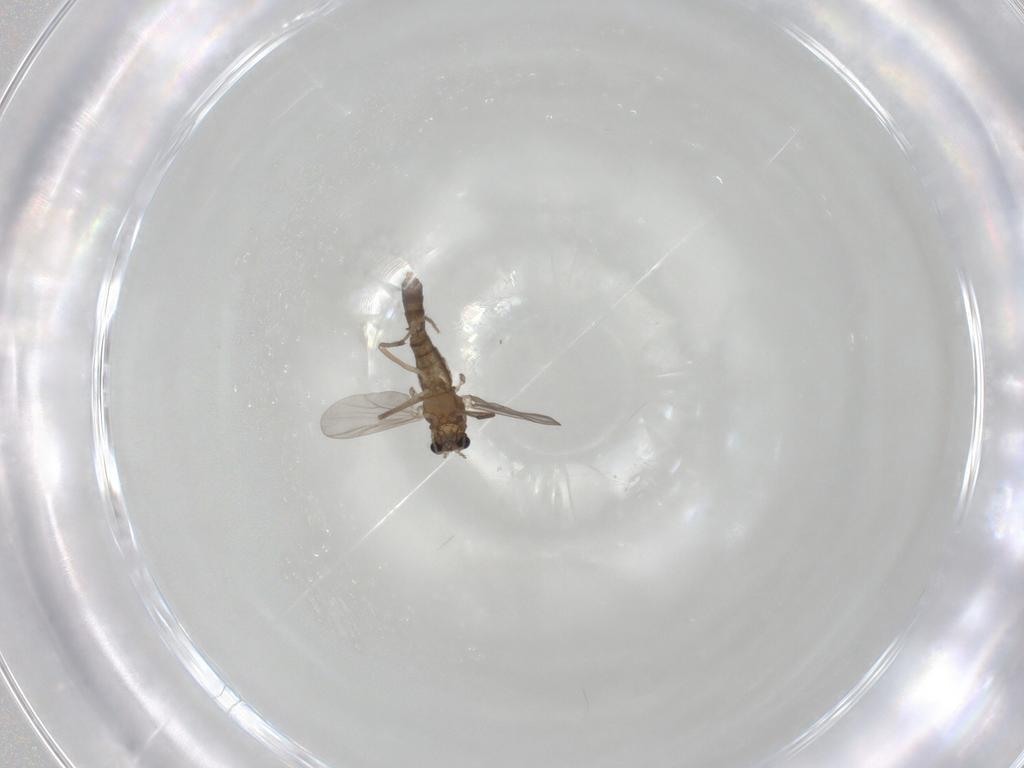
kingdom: Animalia
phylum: Arthropoda
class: Insecta
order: Diptera
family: Chironomidae
